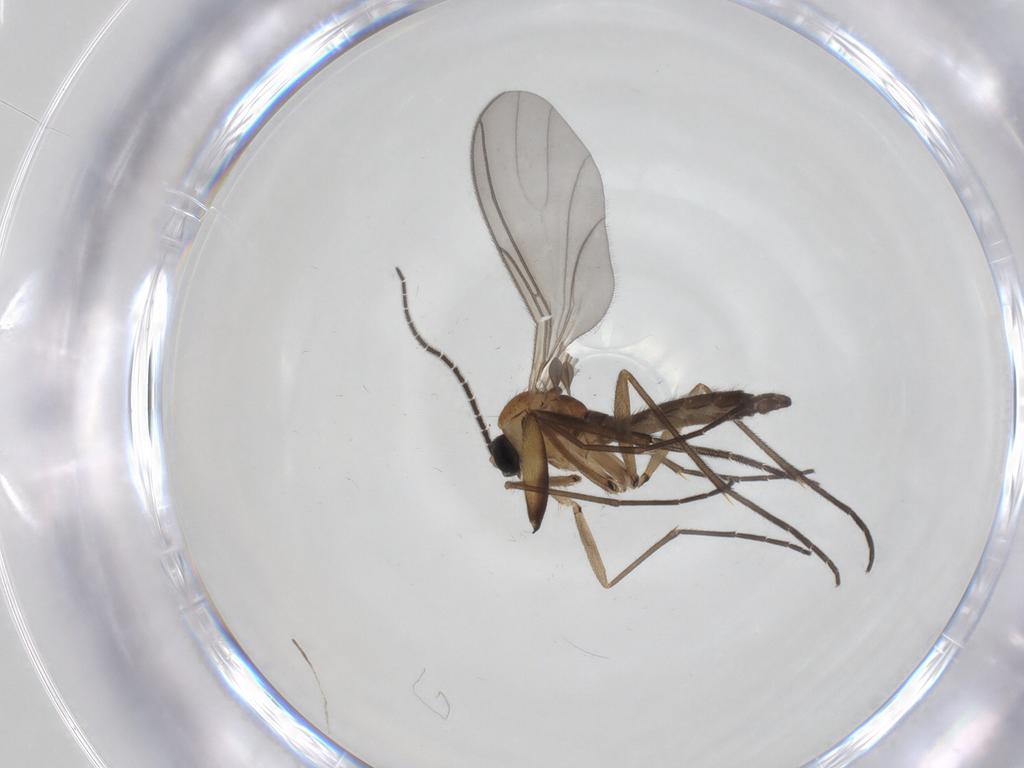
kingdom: Animalia
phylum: Arthropoda
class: Insecta
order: Diptera
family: Sciaridae
